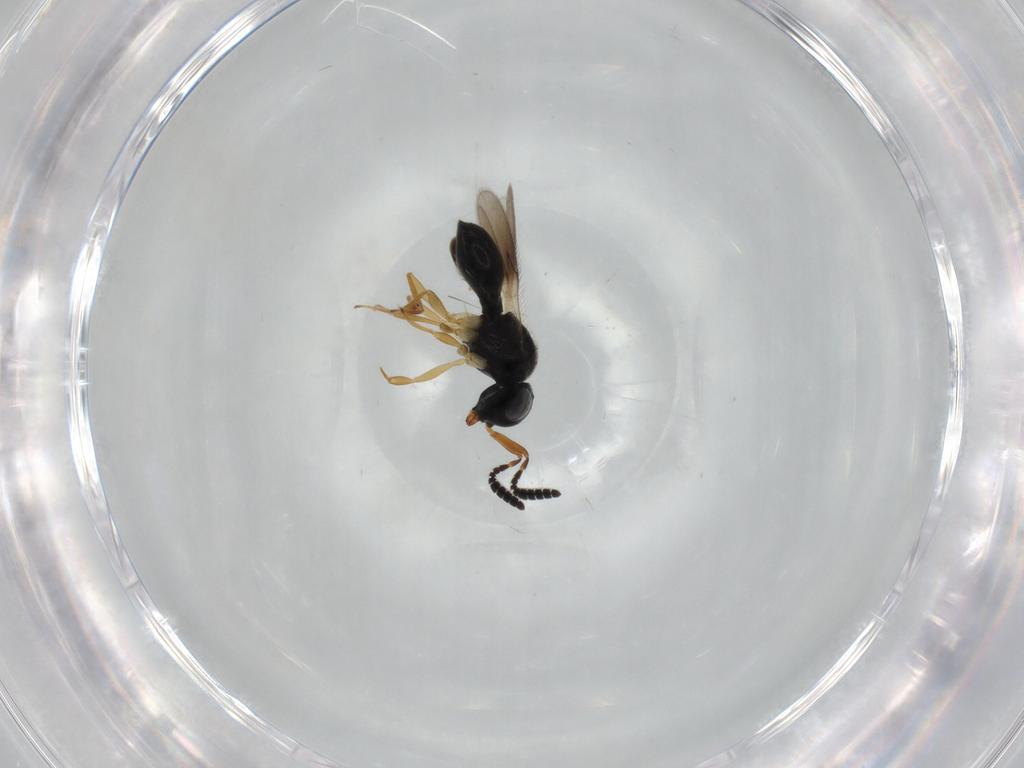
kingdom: Animalia
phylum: Arthropoda
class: Insecta
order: Hymenoptera
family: Scelionidae
